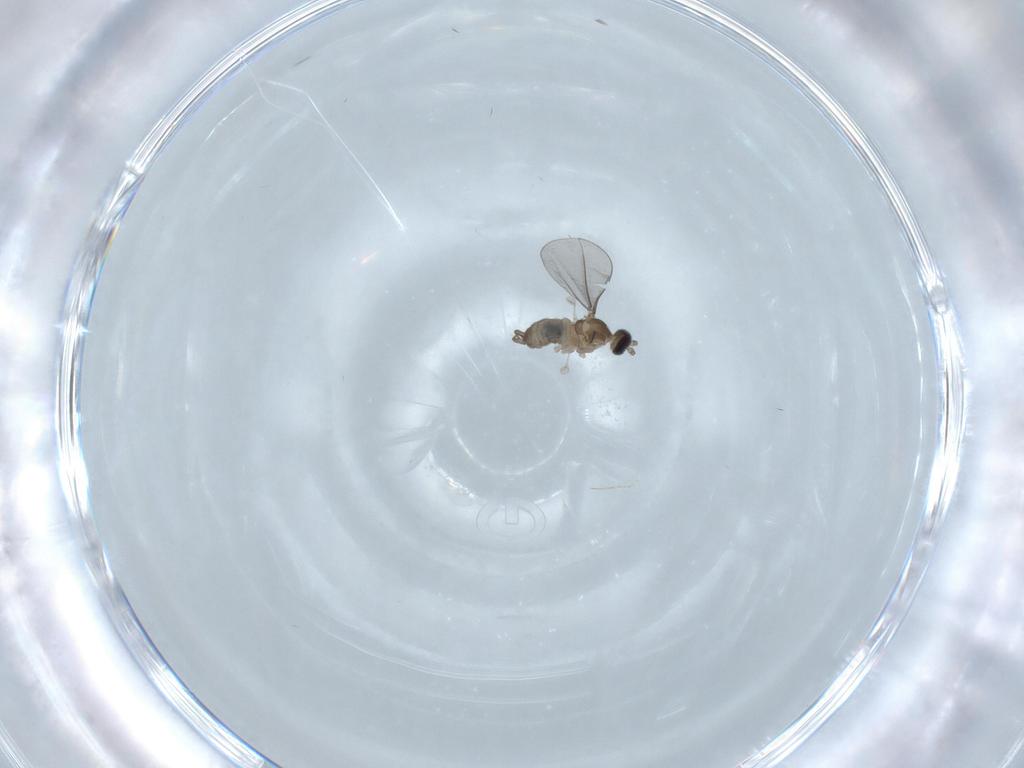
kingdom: Animalia
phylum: Arthropoda
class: Insecta
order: Diptera
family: Cecidomyiidae
